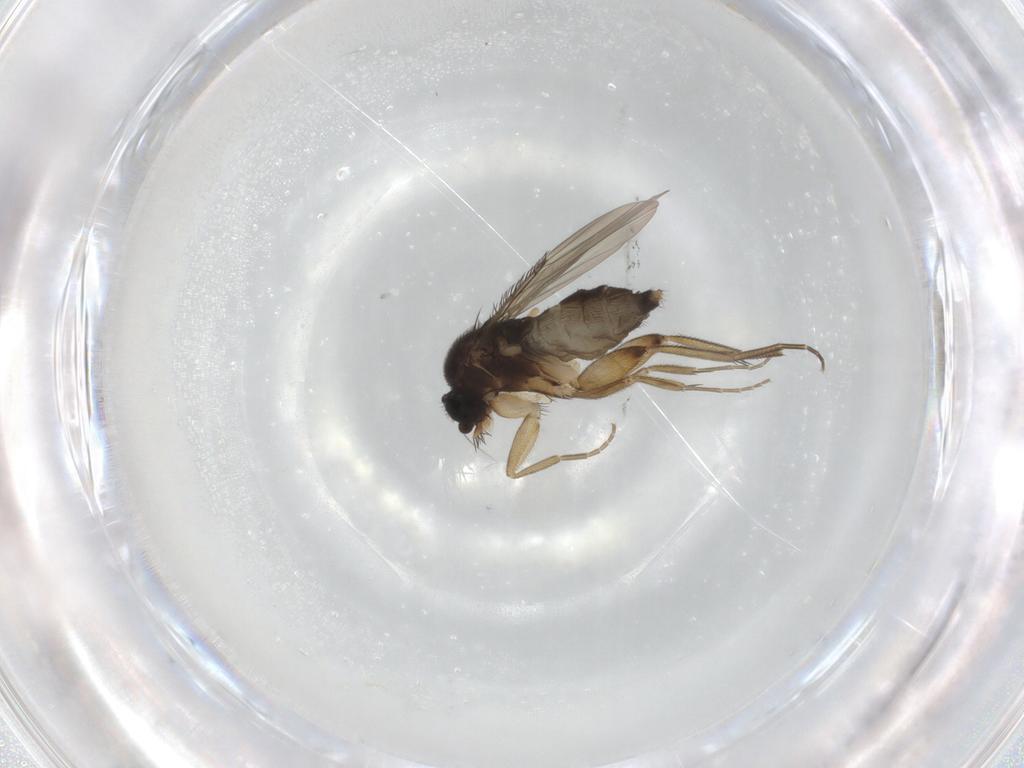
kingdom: Animalia
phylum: Arthropoda
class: Insecta
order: Diptera
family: Phoridae
